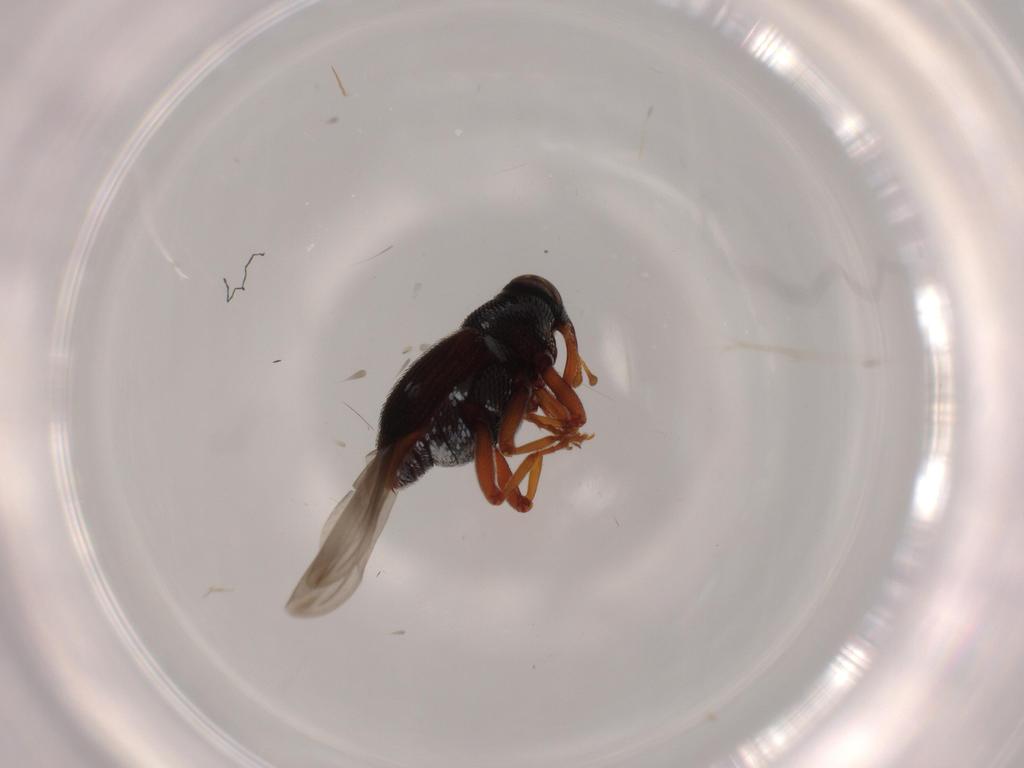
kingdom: Animalia
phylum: Arthropoda
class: Insecta
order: Coleoptera
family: Curculionidae
